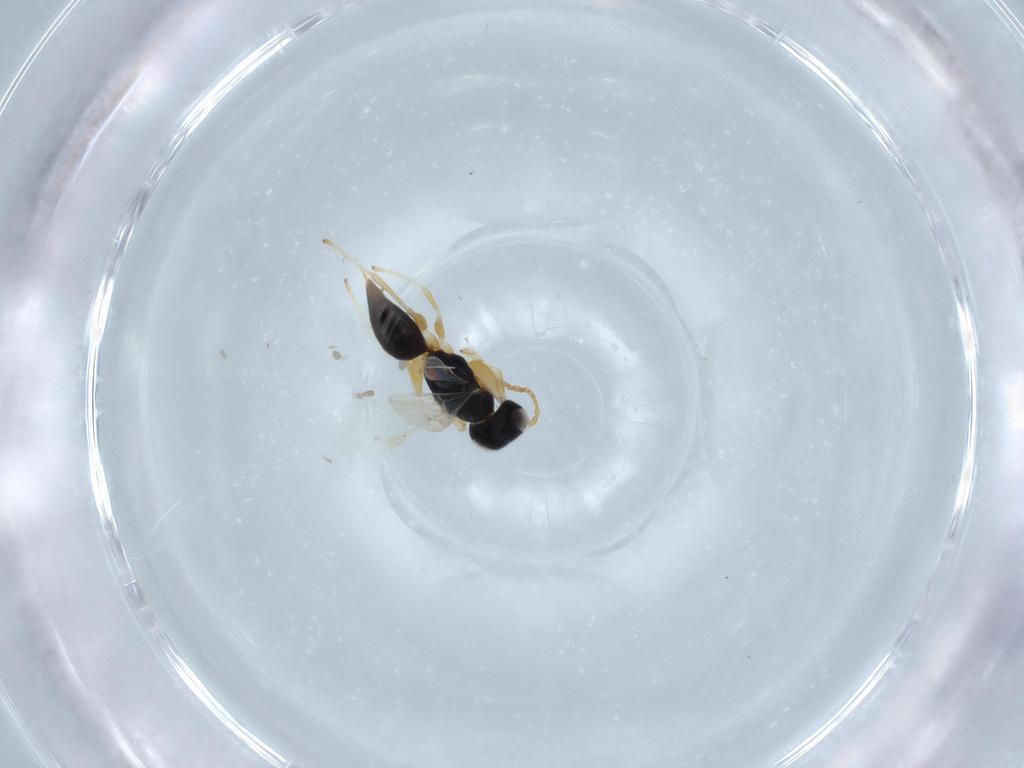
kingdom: Animalia
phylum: Arthropoda
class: Insecta
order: Hymenoptera
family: Dryinidae
